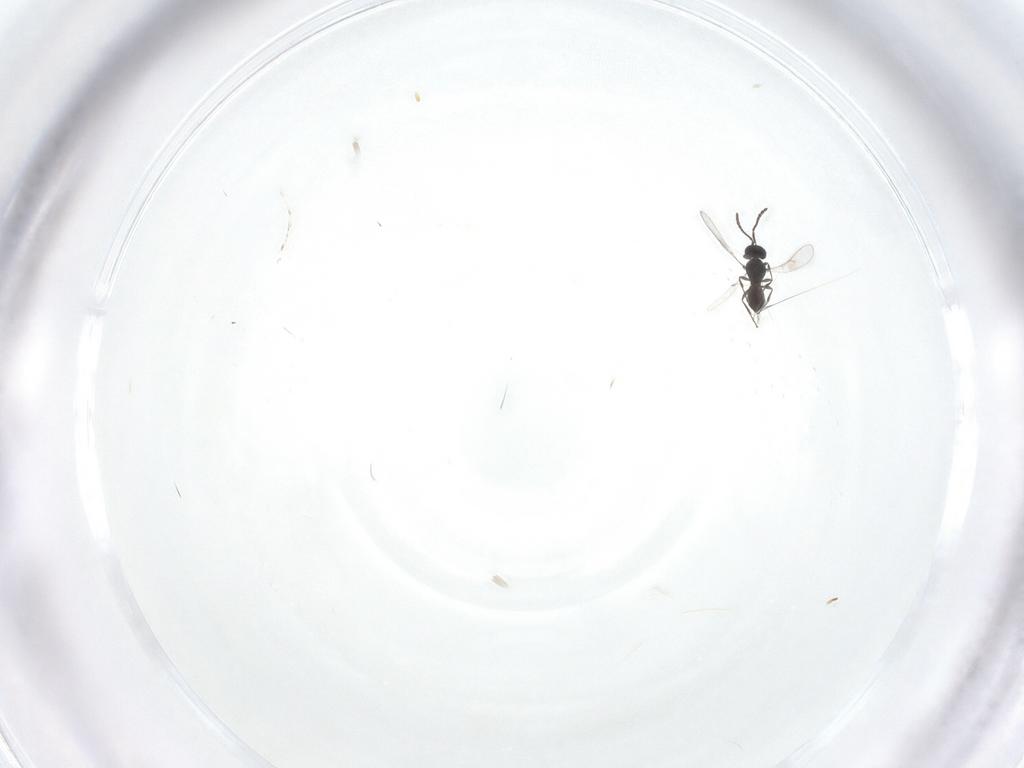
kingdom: Animalia
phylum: Arthropoda
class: Insecta
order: Hymenoptera
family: Scelionidae
